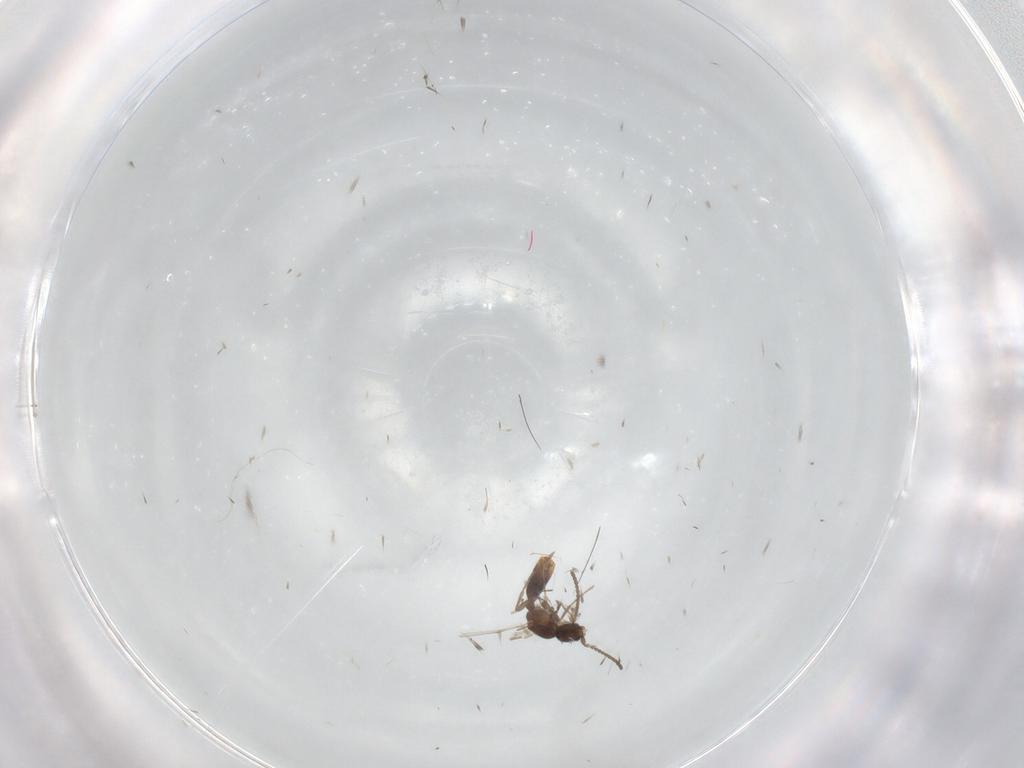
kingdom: Animalia
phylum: Arthropoda
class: Insecta
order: Hymenoptera
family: Formicidae
